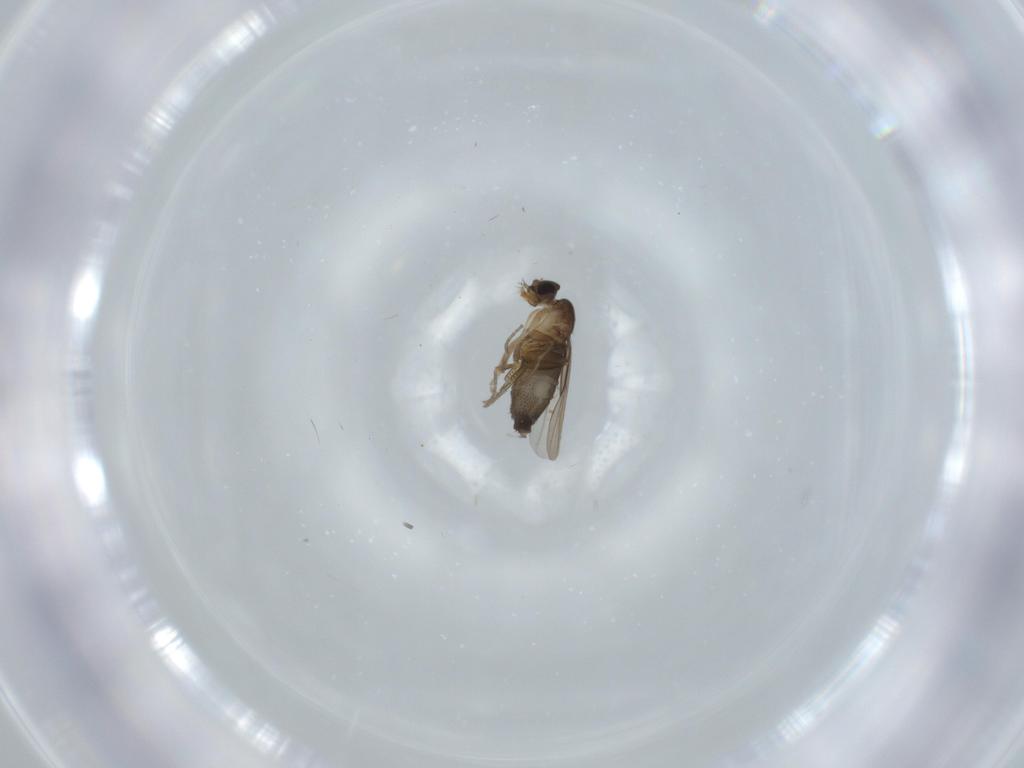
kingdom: Animalia
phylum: Arthropoda
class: Insecta
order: Diptera
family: Phoridae
